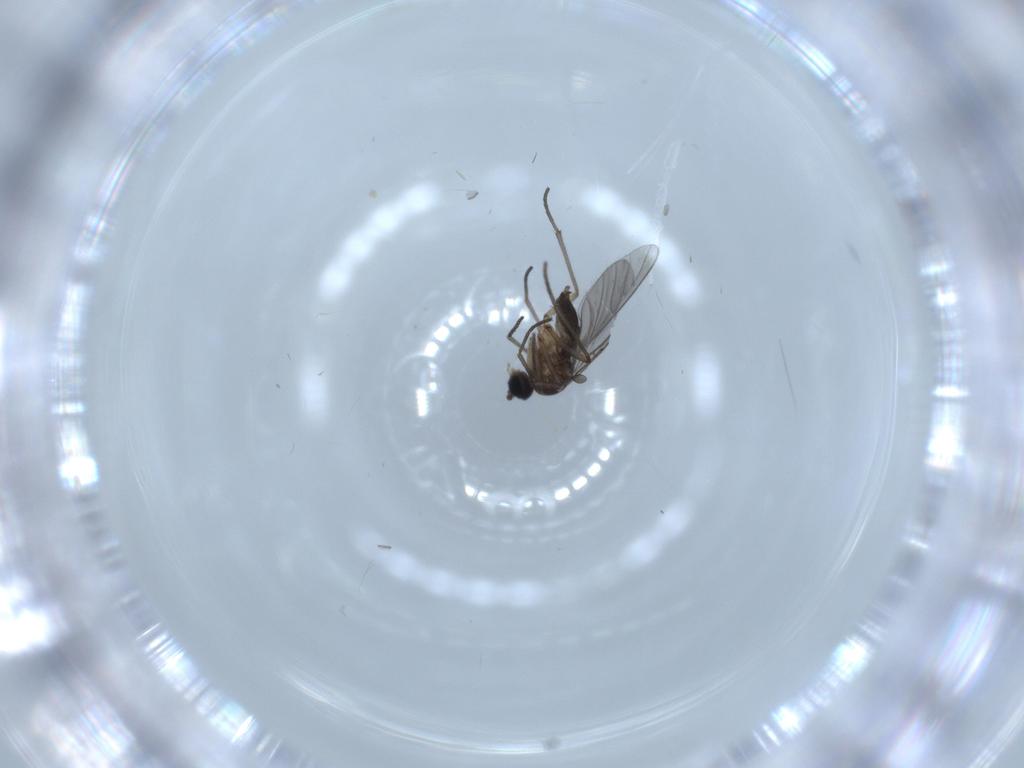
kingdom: Animalia
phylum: Arthropoda
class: Insecta
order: Diptera
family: Sciaridae
